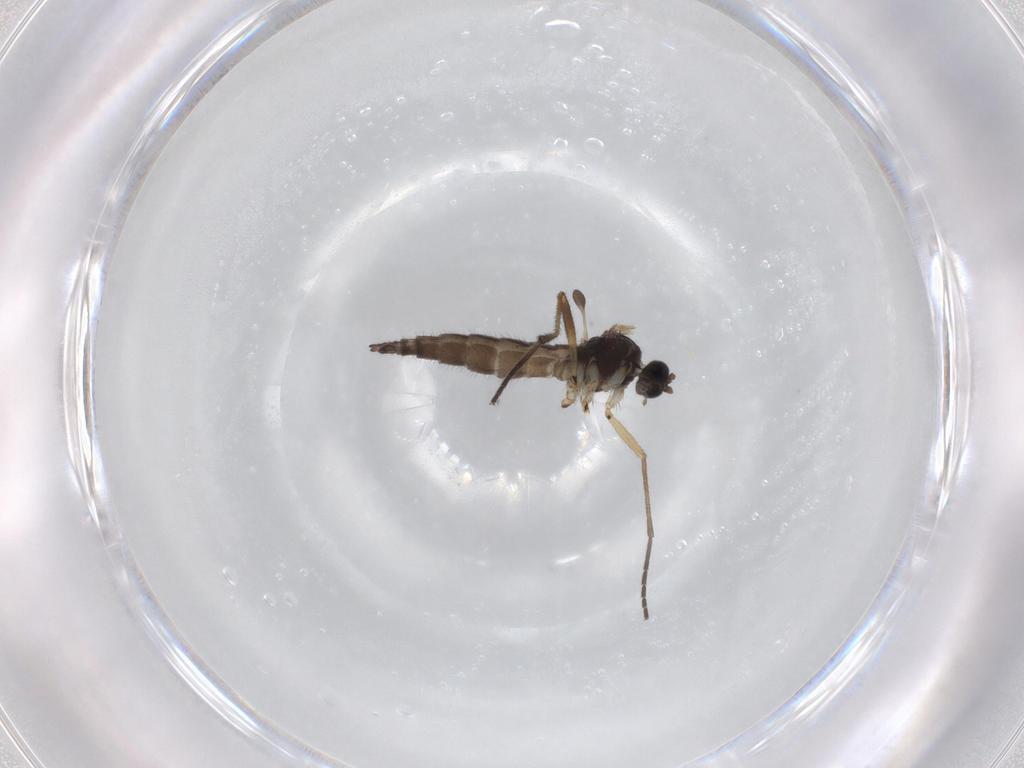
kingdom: Animalia
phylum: Arthropoda
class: Insecta
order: Diptera
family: Sciaridae
